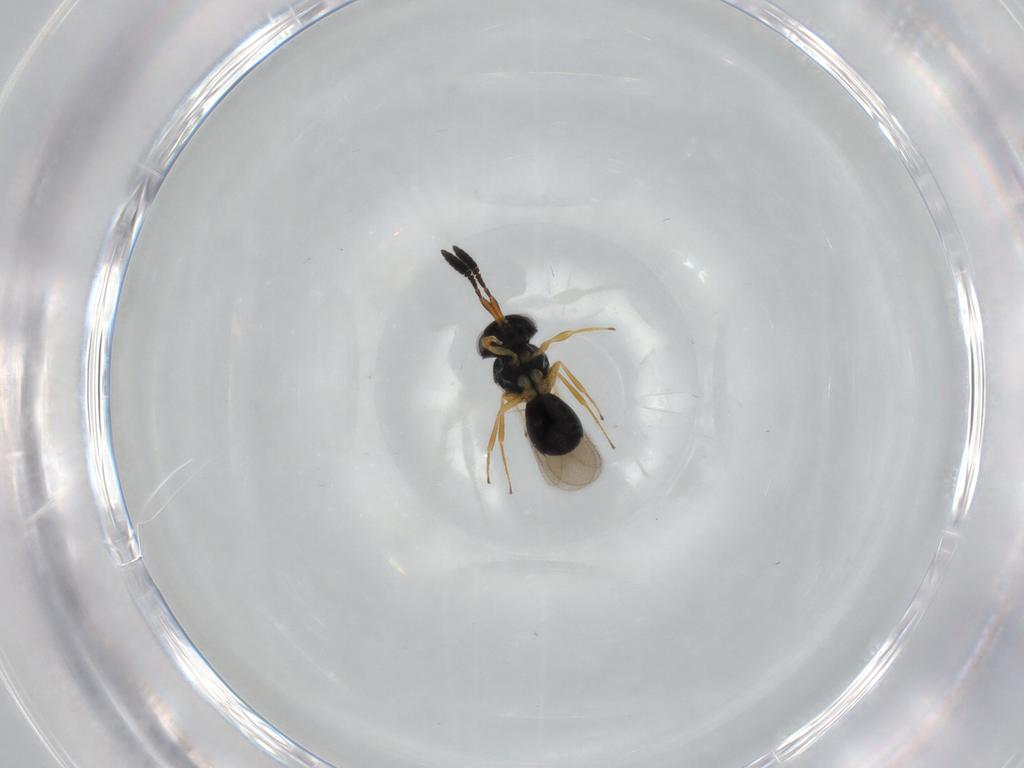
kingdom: Animalia
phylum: Arthropoda
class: Insecta
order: Hymenoptera
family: Scelionidae
